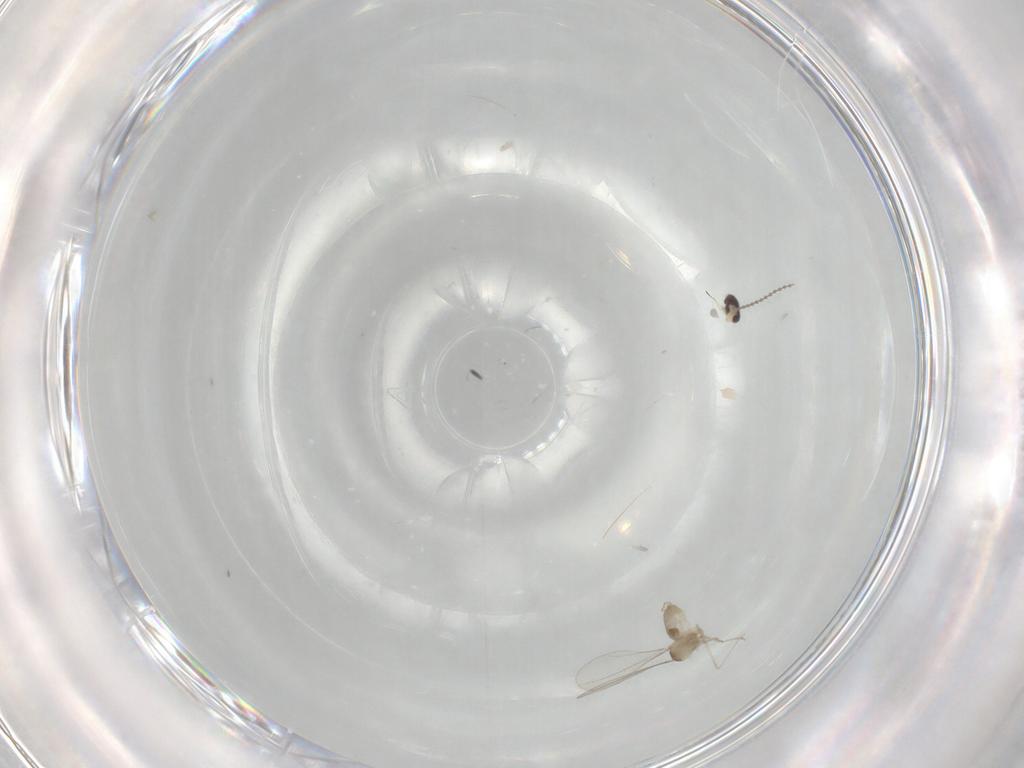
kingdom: Animalia
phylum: Arthropoda
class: Insecta
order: Diptera
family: Cecidomyiidae
